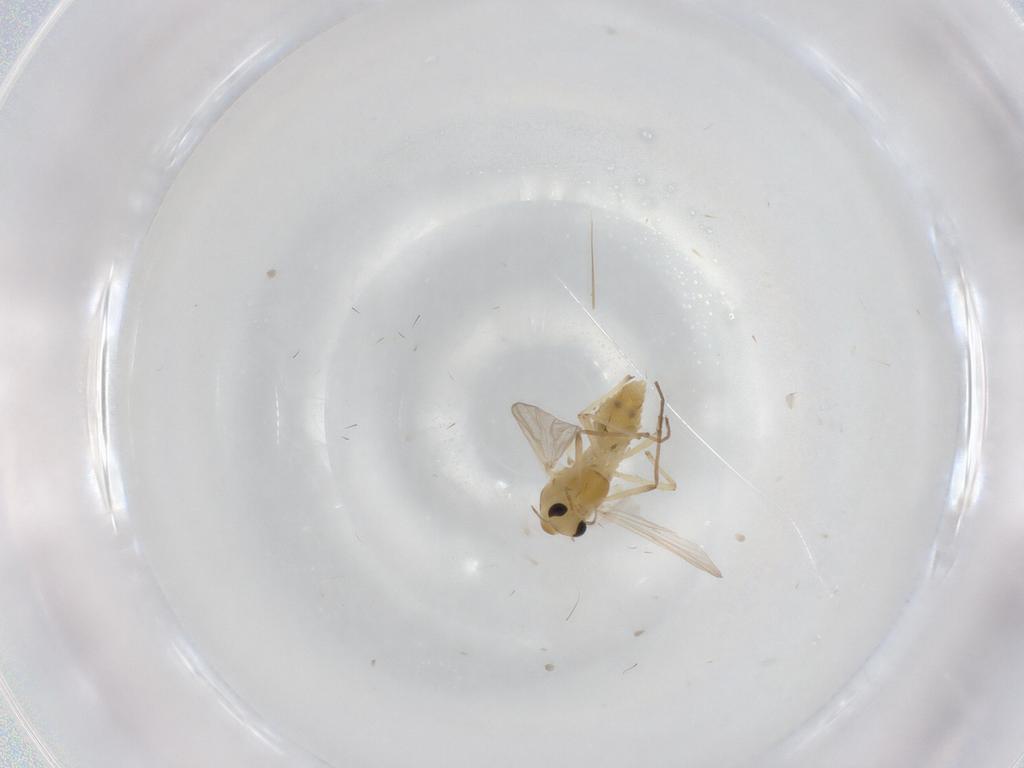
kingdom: Animalia
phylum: Arthropoda
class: Insecta
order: Diptera
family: Chironomidae
